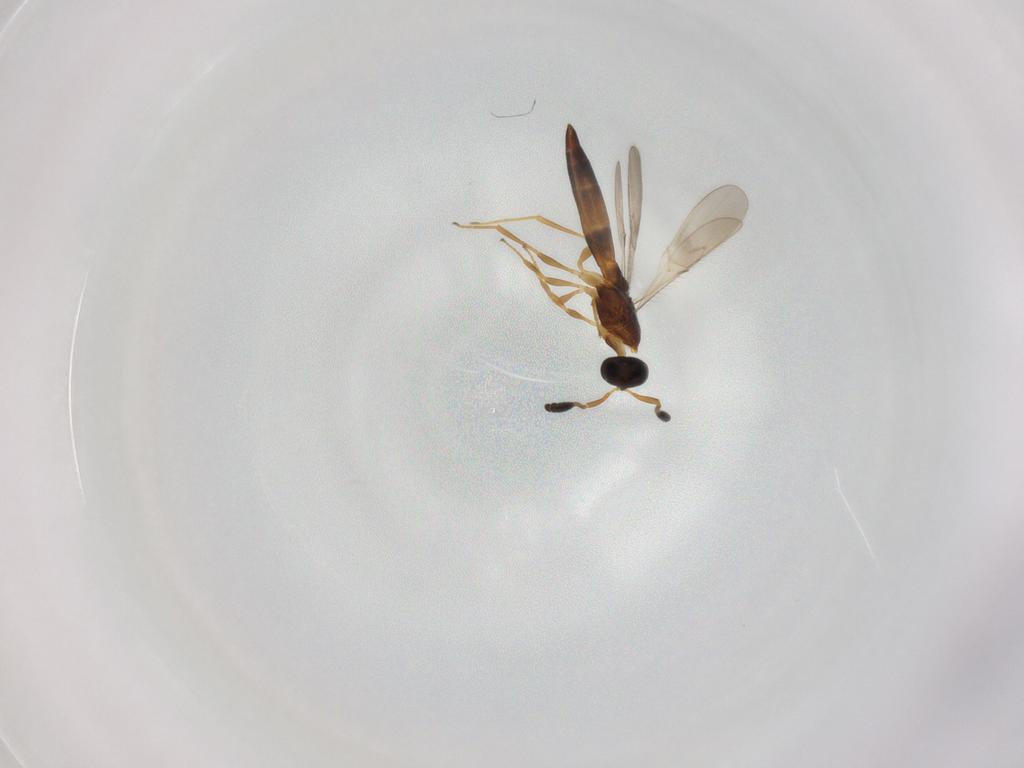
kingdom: Animalia
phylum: Arthropoda
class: Insecta
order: Hymenoptera
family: Scelionidae
